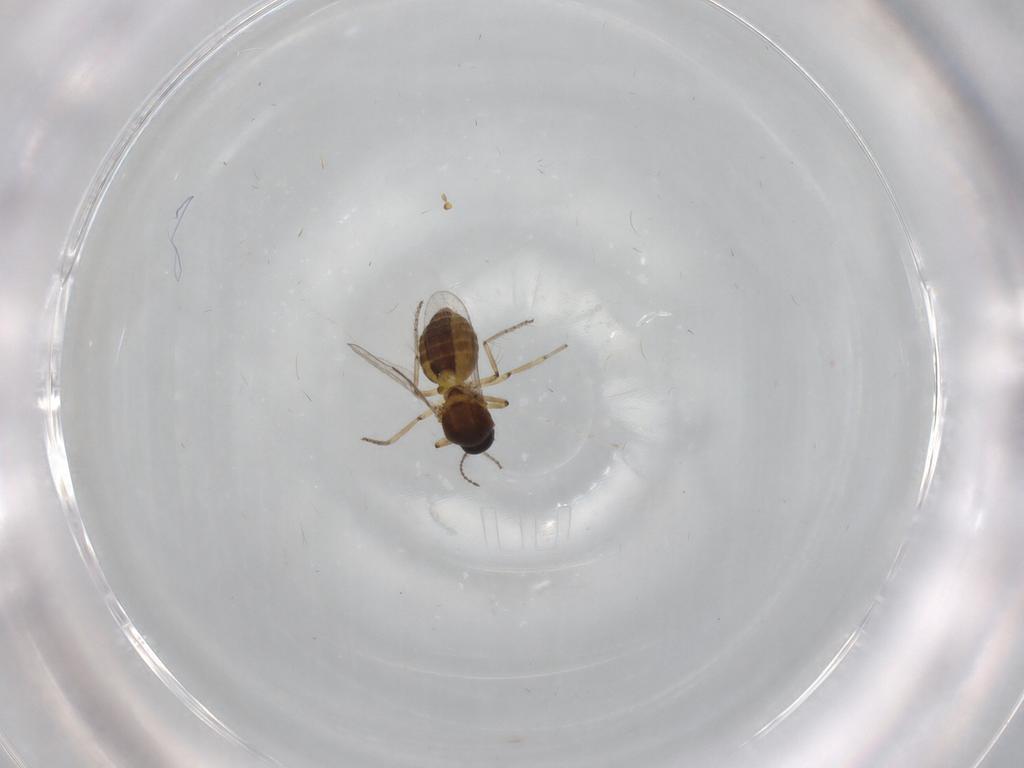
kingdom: Animalia
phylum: Arthropoda
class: Insecta
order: Diptera
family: Ceratopogonidae
